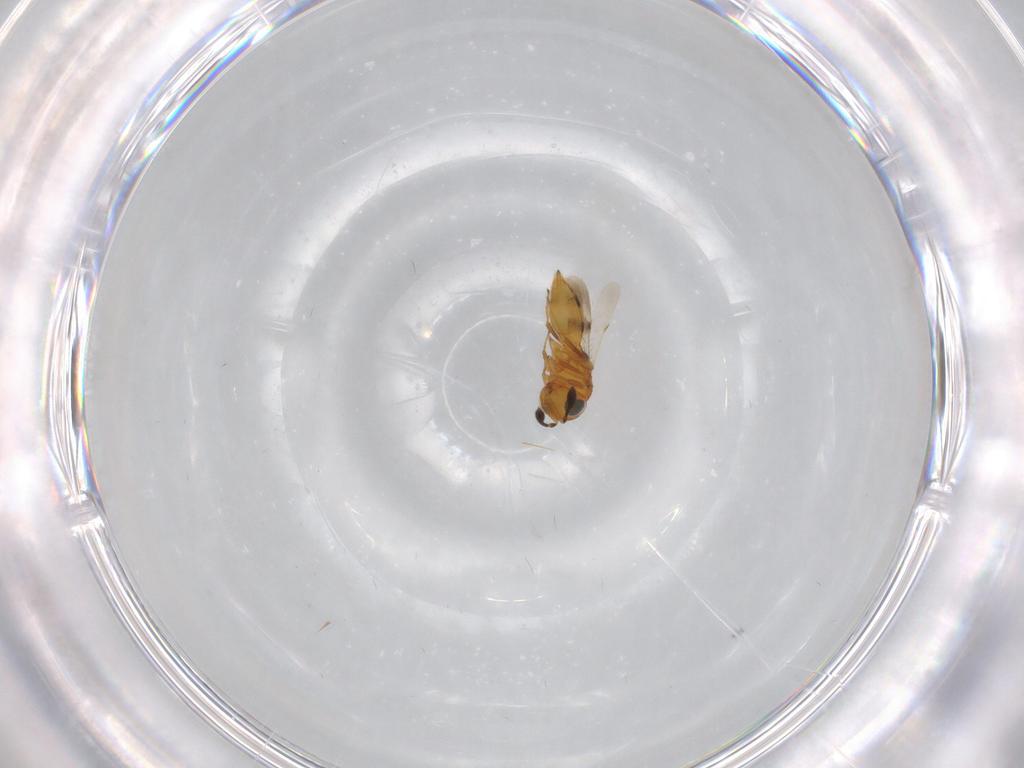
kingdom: Animalia
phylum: Arthropoda
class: Insecta
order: Hymenoptera
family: Scelionidae
